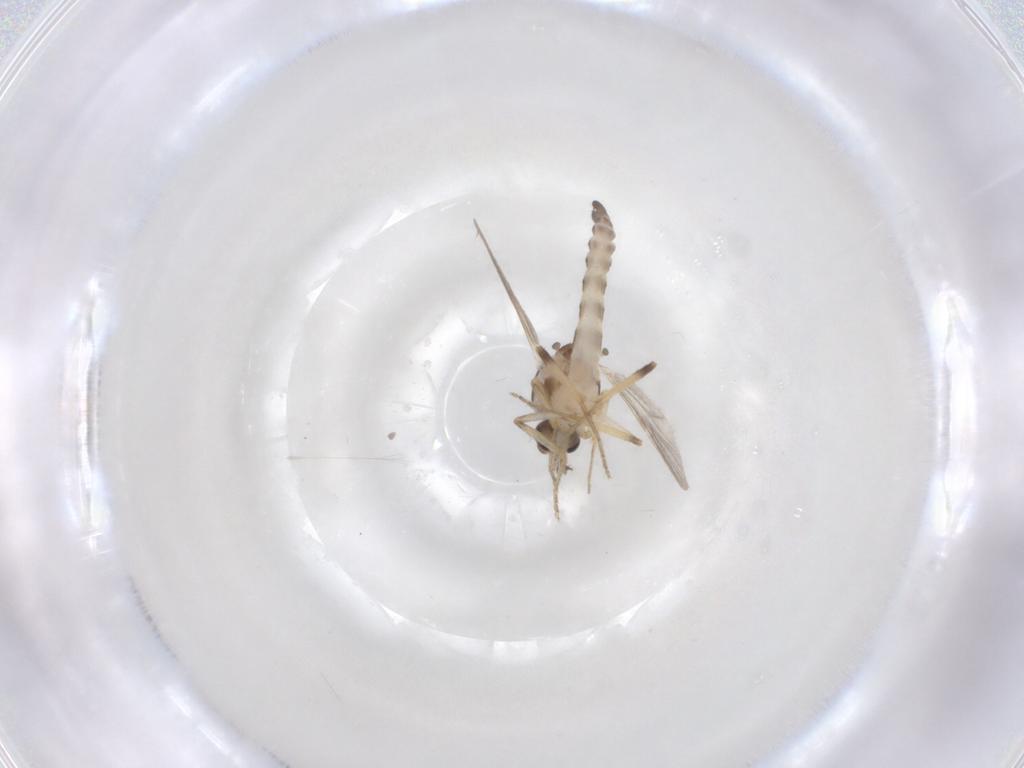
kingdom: Animalia
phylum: Arthropoda
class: Insecta
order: Diptera
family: Ceratopogonidae
